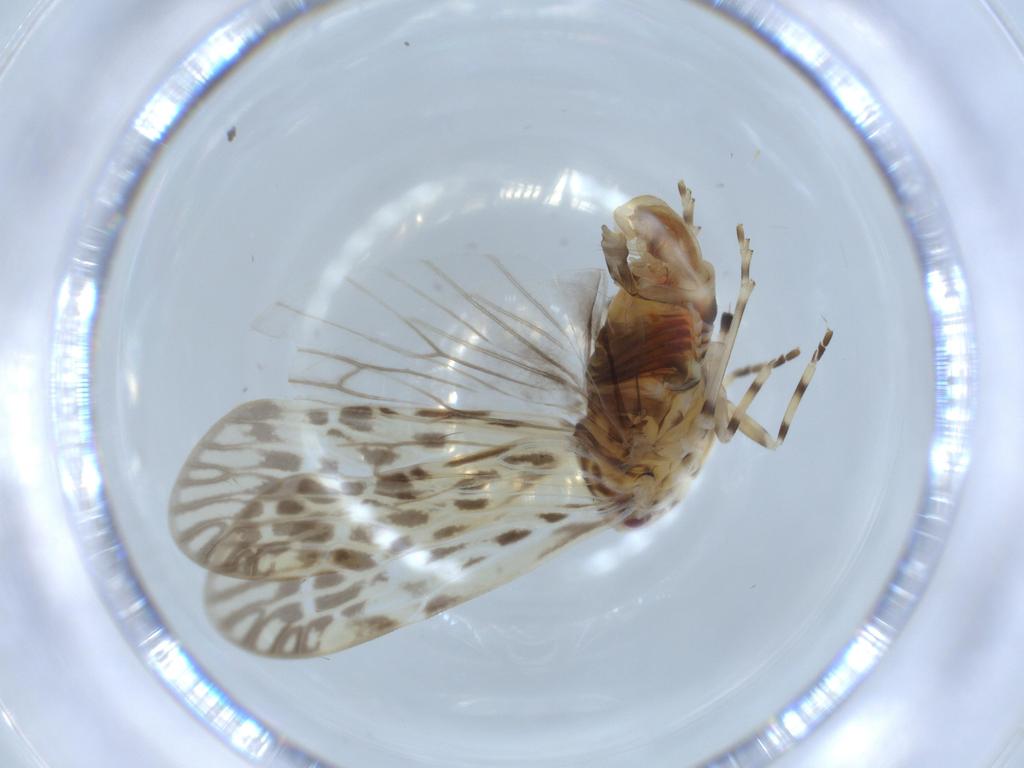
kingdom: Animalia
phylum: Arthropoda
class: Insecta
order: Hemiptera
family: Derbidae
